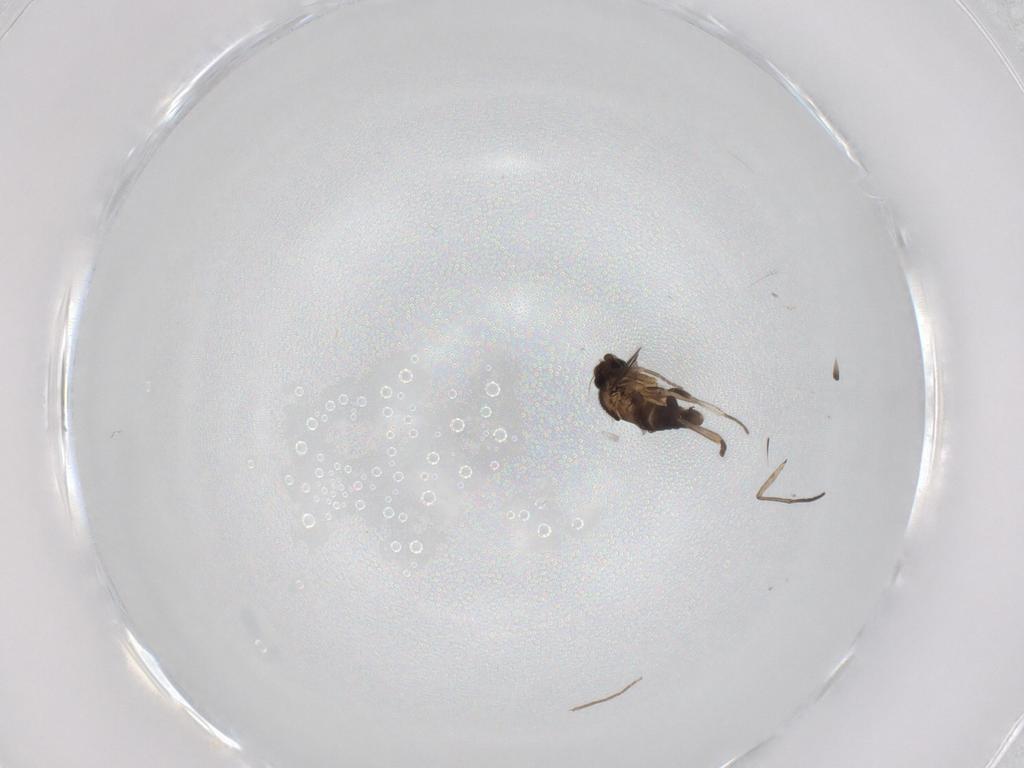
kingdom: Animalia
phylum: Arthropoda
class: Insecta
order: Diptera
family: Phoridae
